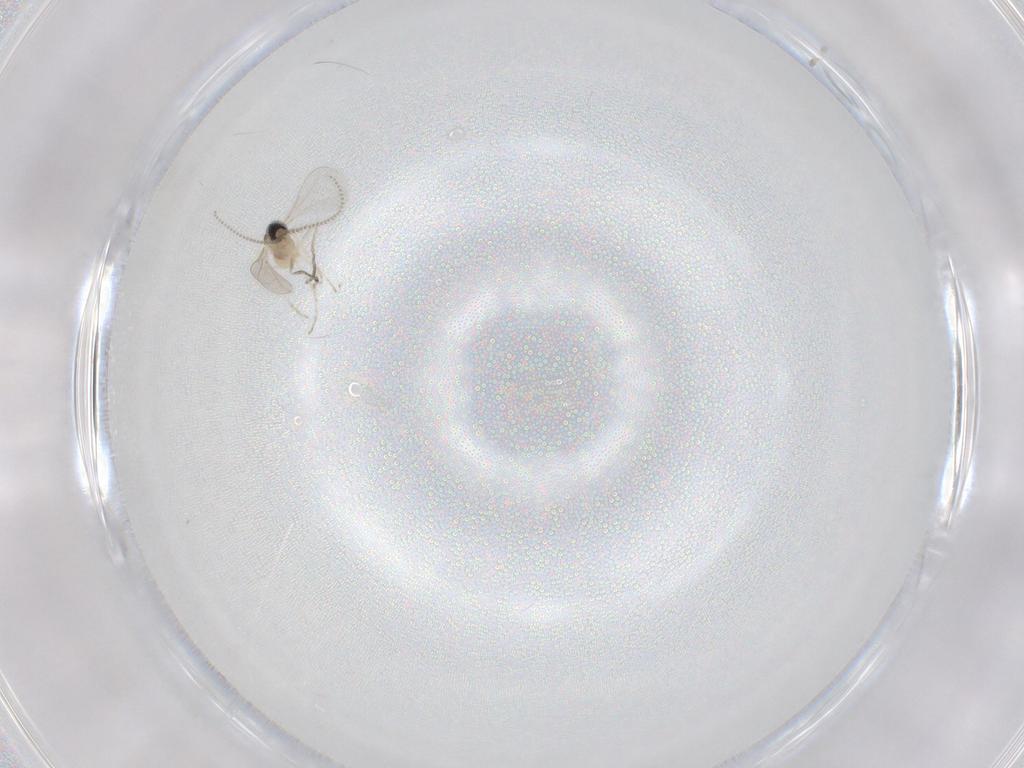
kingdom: Animalia
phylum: Arthropoda
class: Insecta
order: Diptera
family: Cecidomyiidae
